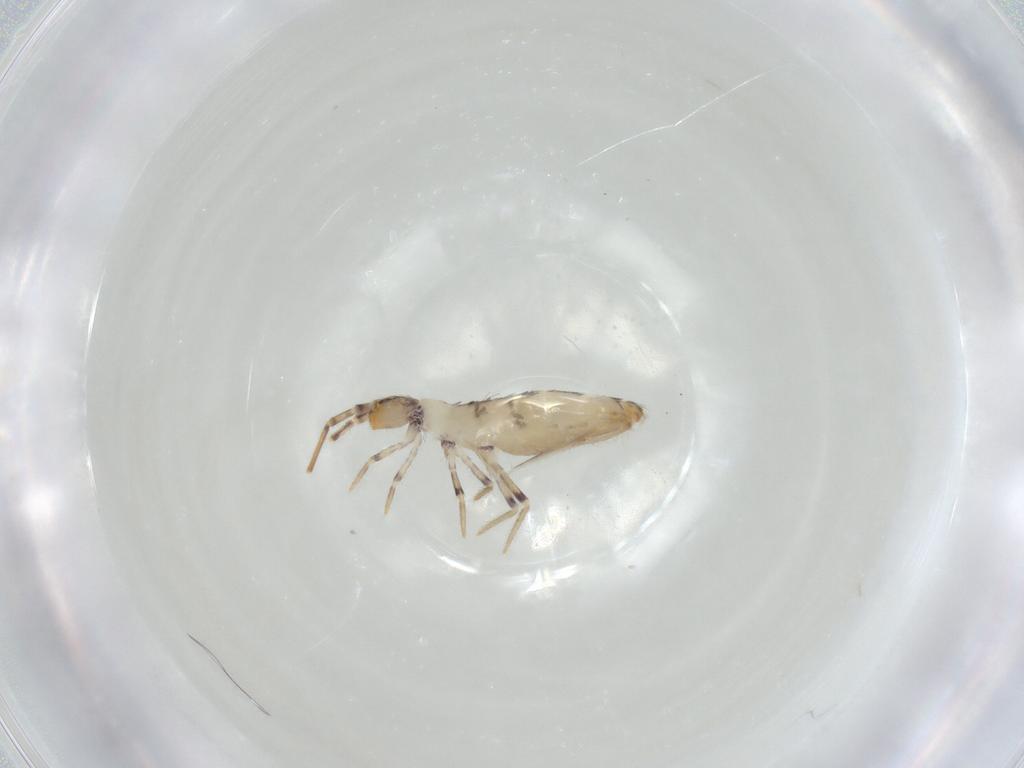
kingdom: Animalia
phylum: Arthropoda
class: Collembola
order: Entomobryomorpha
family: Entomobryidae
